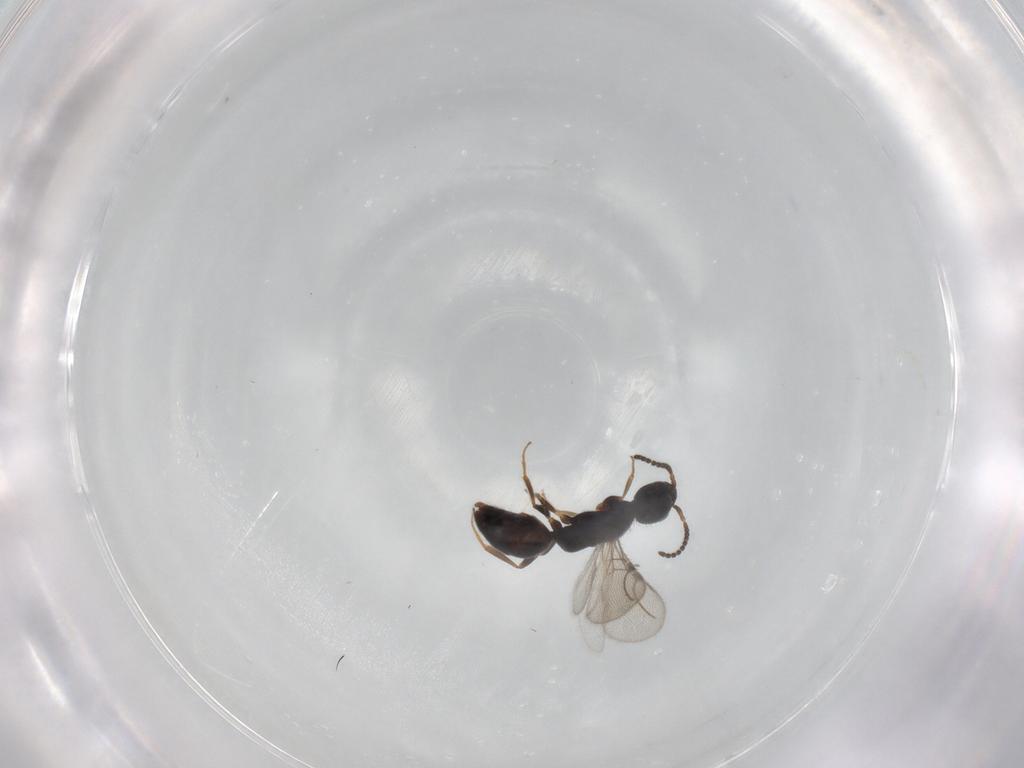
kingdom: Animalia
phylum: Arthropoda
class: Insecta
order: Hymenoptera
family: Bethylidae
